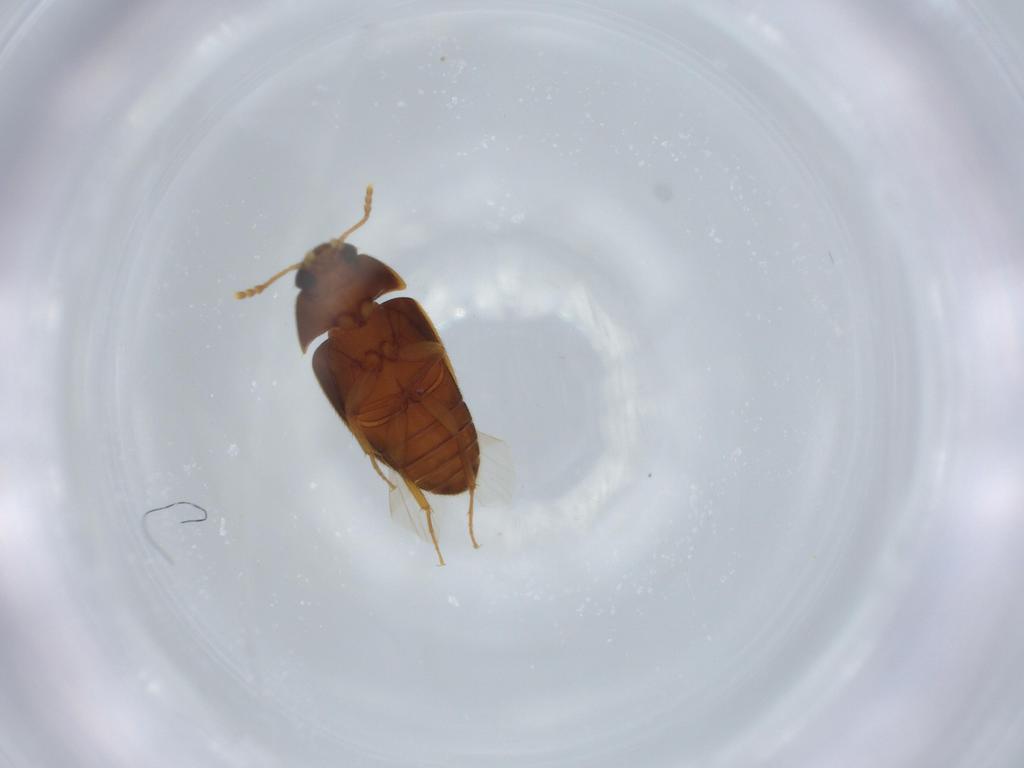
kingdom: Animalia
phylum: Arthropoda
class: Insecta
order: Coleoptera
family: Mycetophagidae
